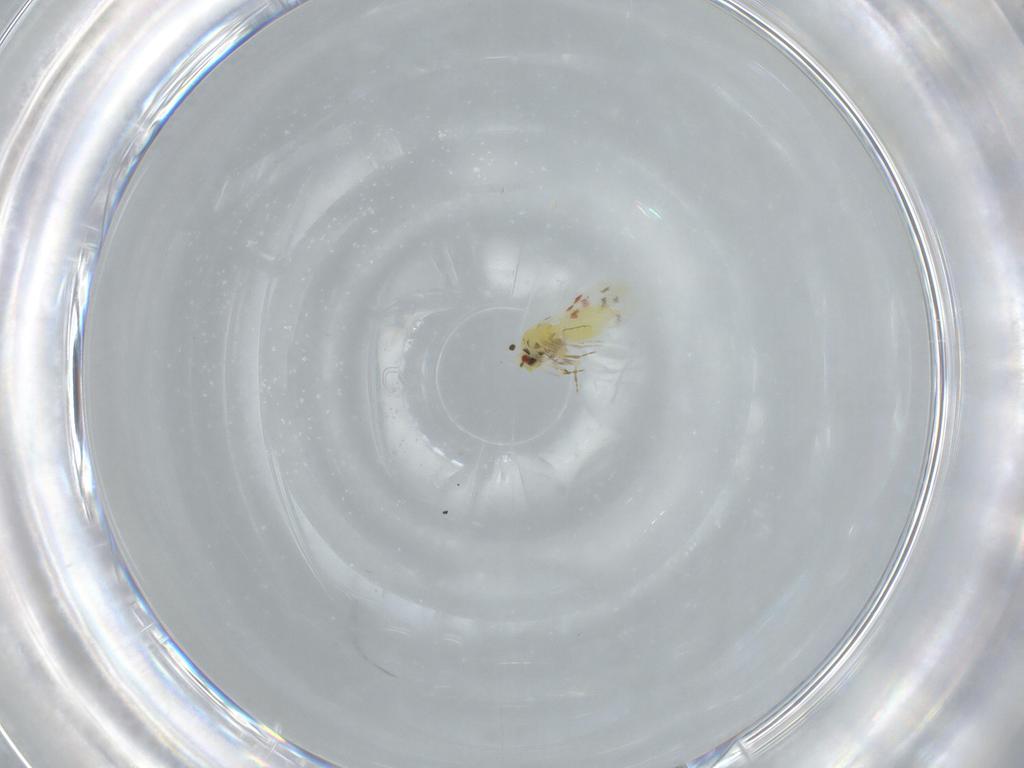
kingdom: Animalia
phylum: Arthropoda
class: Insecta
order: Hemiptera
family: Aleyrodidae
